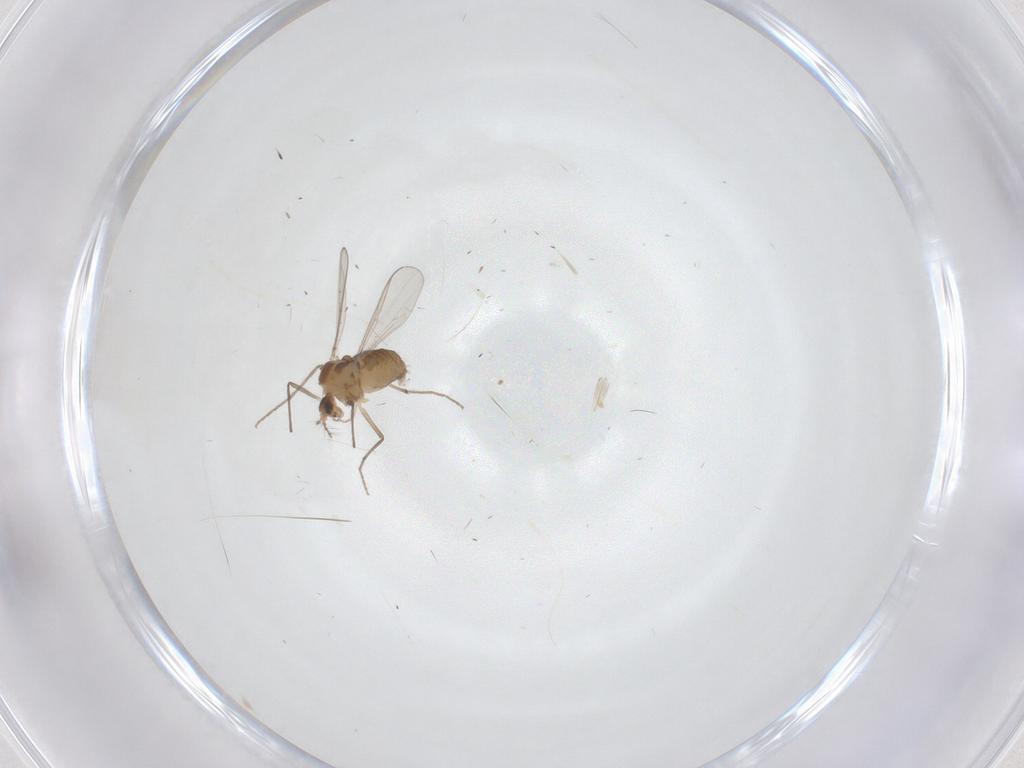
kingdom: Animalia
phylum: Arthropoda
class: Insecta
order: Diptera
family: Chironomidae
